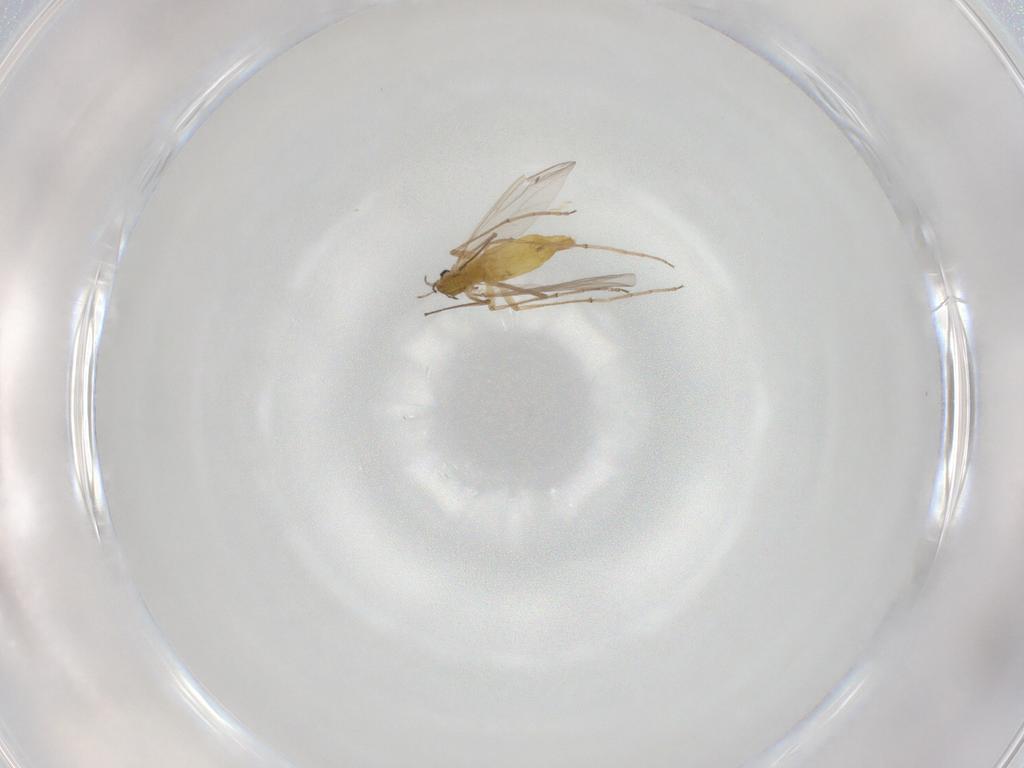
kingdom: Animalia
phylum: Arthropoda
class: Insecta
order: Diptera
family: Chironomidae
